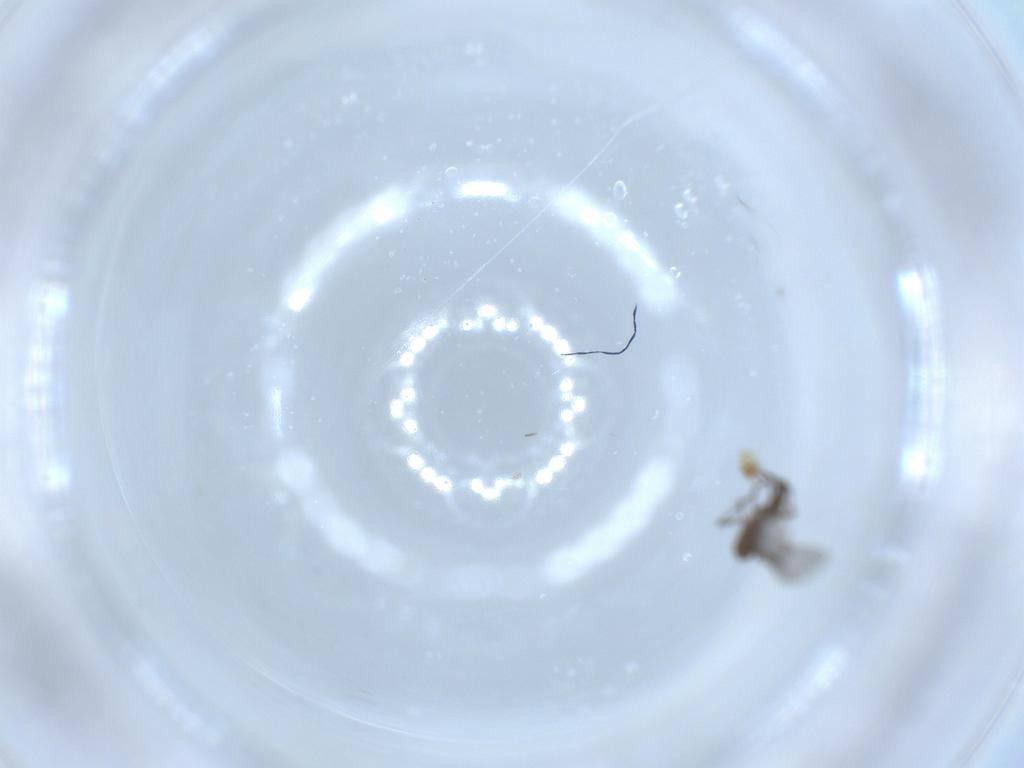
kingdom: Animalia
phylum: Arthropoda
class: Insecta
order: Diptera
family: Sciaridae
